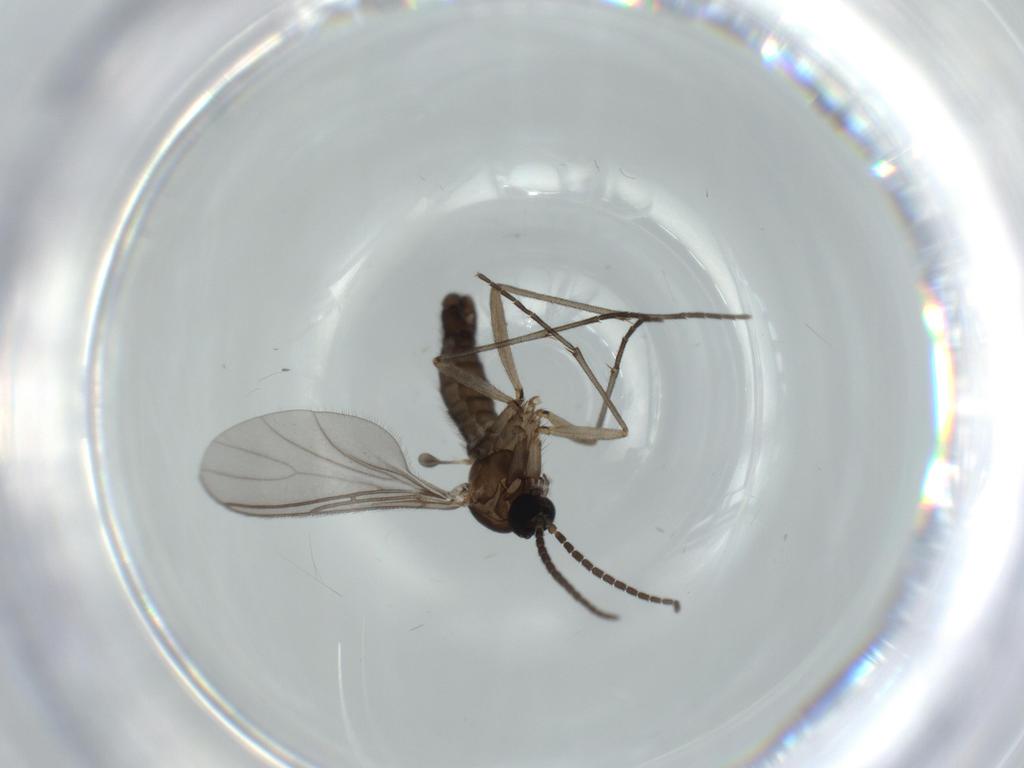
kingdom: Animalia
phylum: Arthropoda
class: Insecta
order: Diptera
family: Sciaridae
